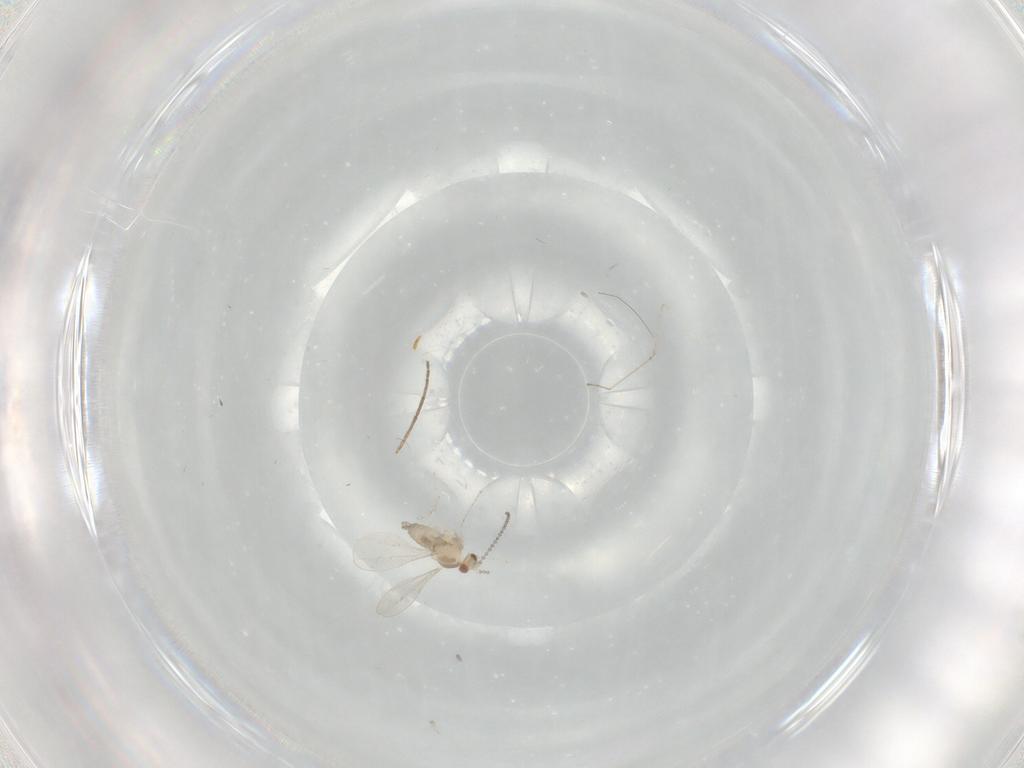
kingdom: Animalia
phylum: Arthropoda
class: Insecta
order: Diptera
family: Cecidomyiidae
